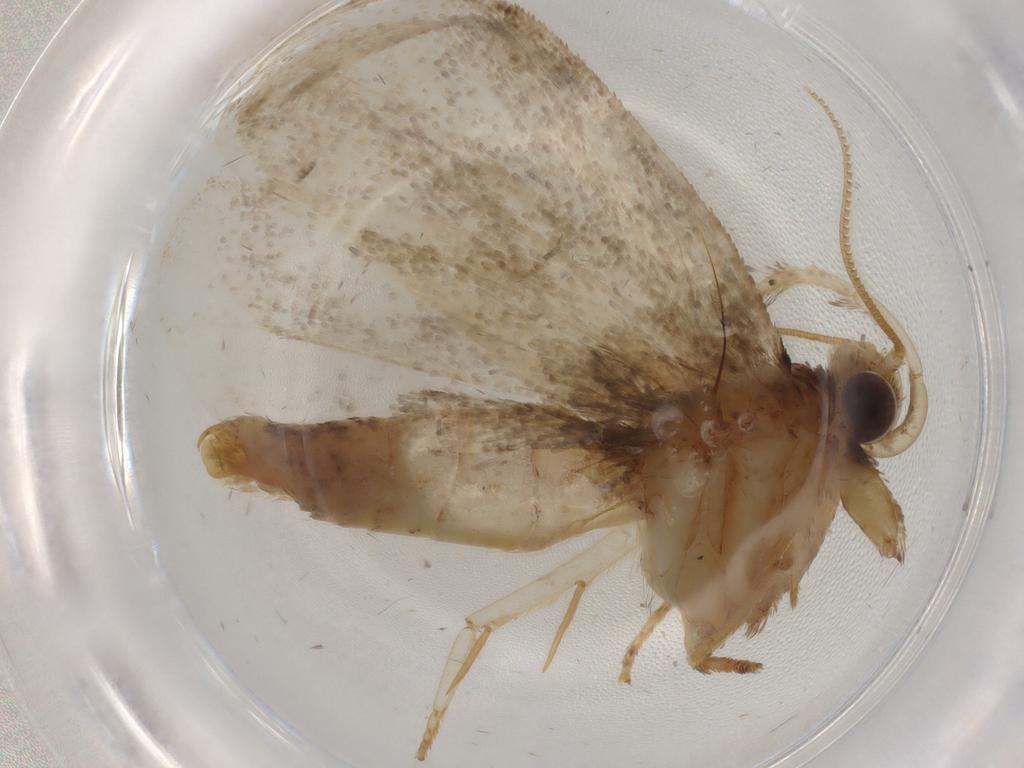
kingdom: Animalia
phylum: Arthropoda
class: Insecta
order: Lepidoptera
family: Tineidae
